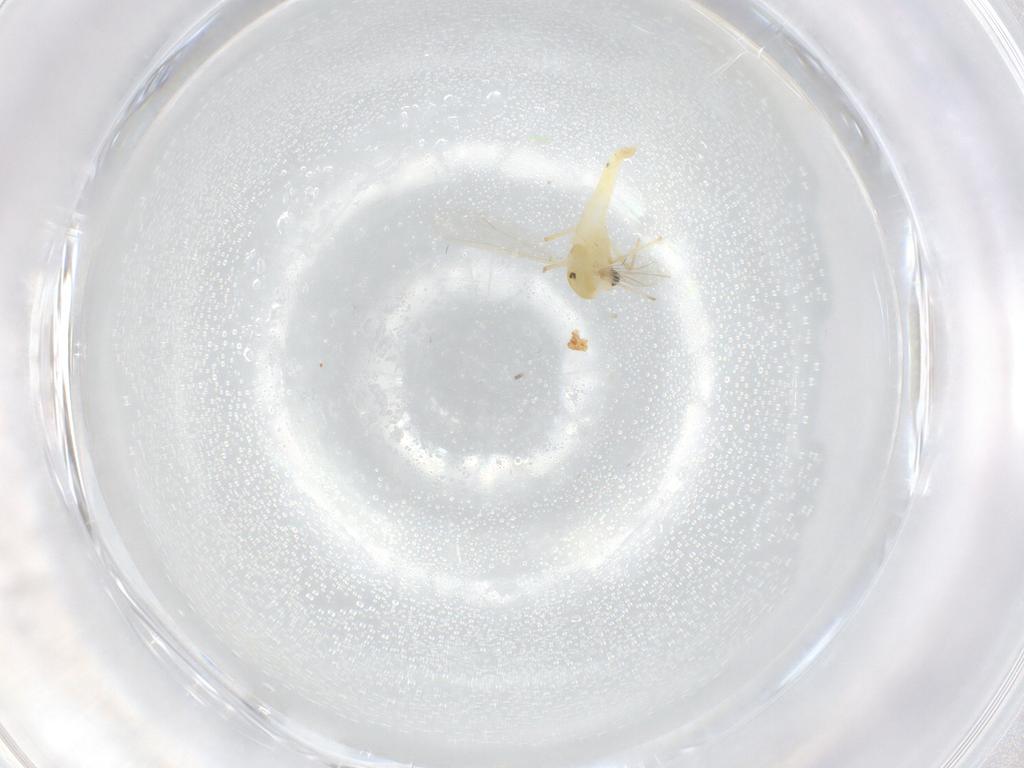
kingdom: Animalia
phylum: Arthropoda
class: Insecta
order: Diptera
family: Chironomidae
